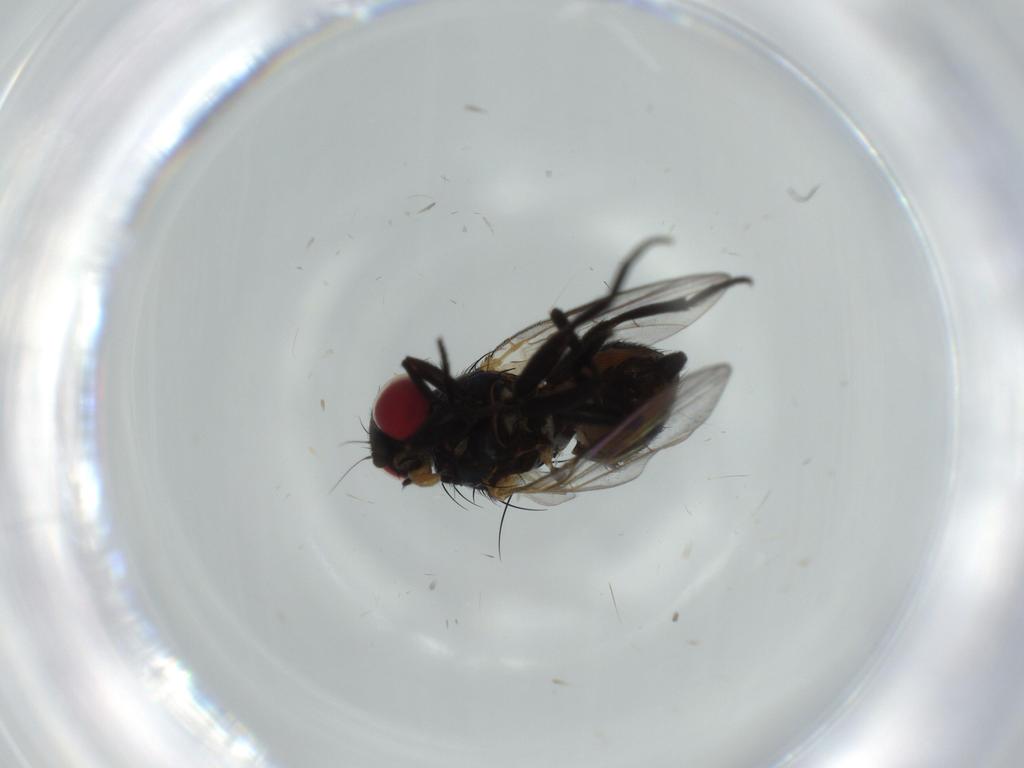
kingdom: Animalia
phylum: Arthropoda
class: Insecta
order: Diptera
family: Agromyzidae
